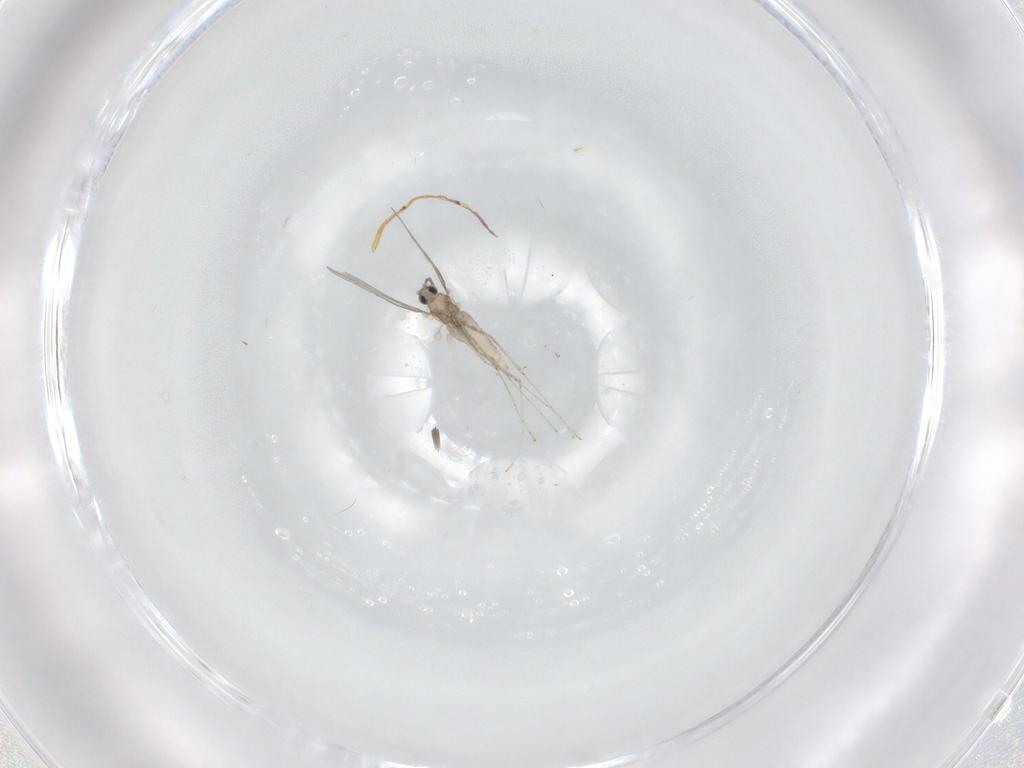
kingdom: Animalia
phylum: Arthropoda
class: Insecta
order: Diptera
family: Cecidomyiidae
